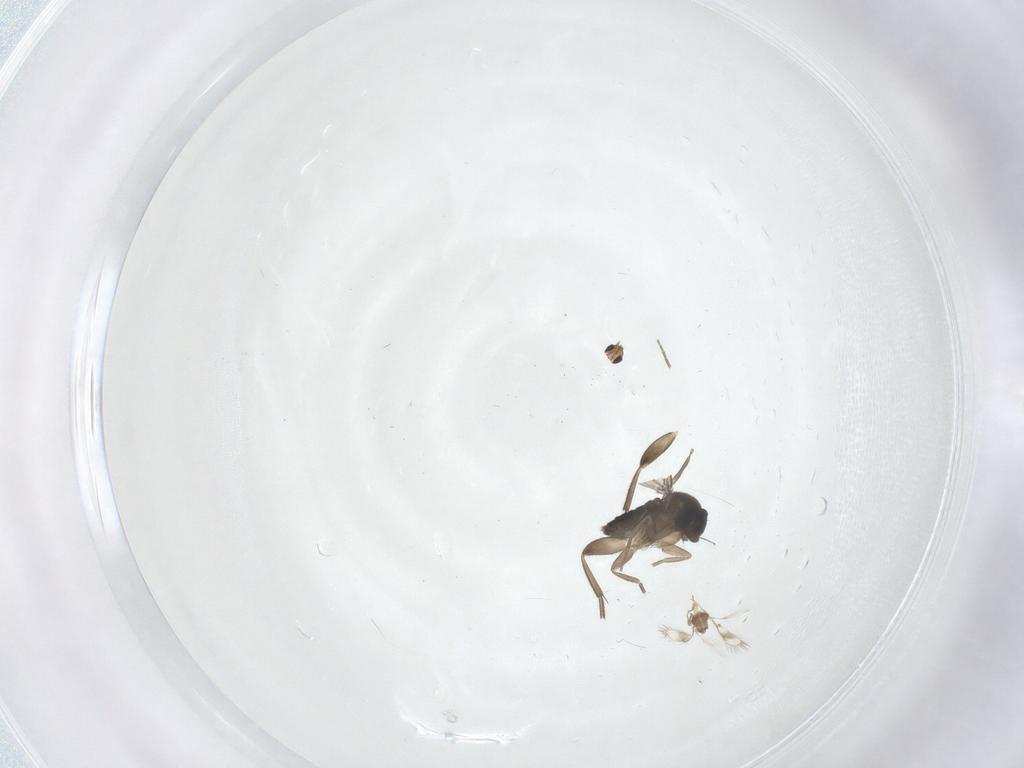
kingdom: Animalia
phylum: Arthropoda
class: Insecta
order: Diptera
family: Phoridae
